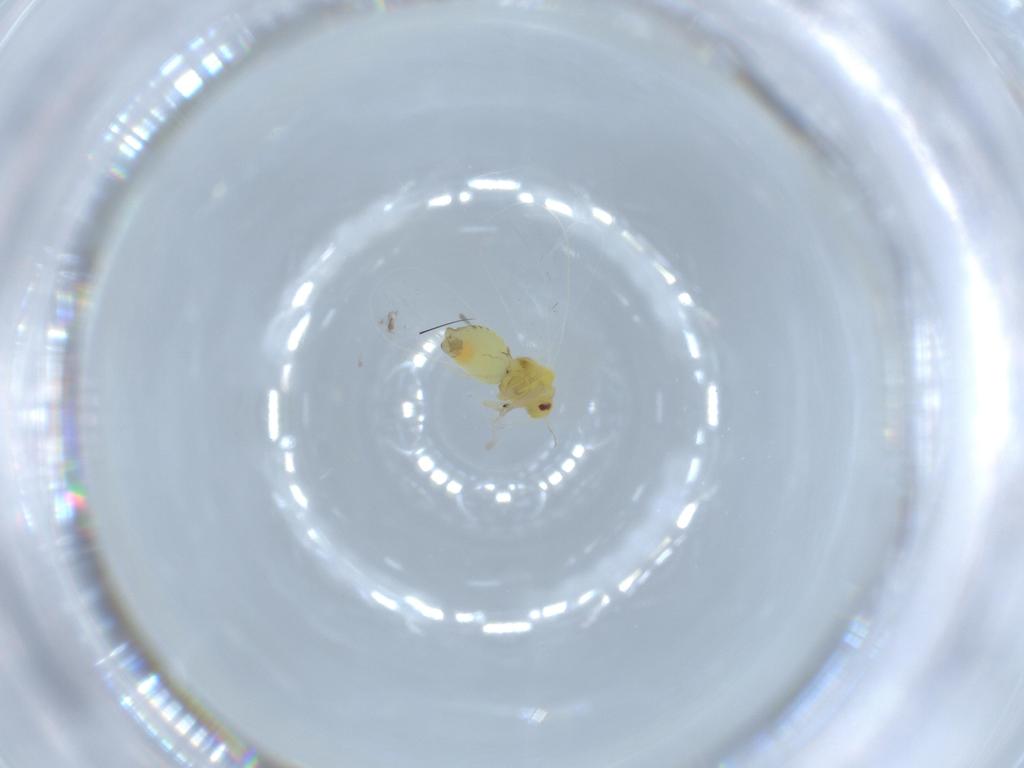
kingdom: Animalia
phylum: Arthropoda
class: Insecta
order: Hemiptera
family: Aleyrodidae
